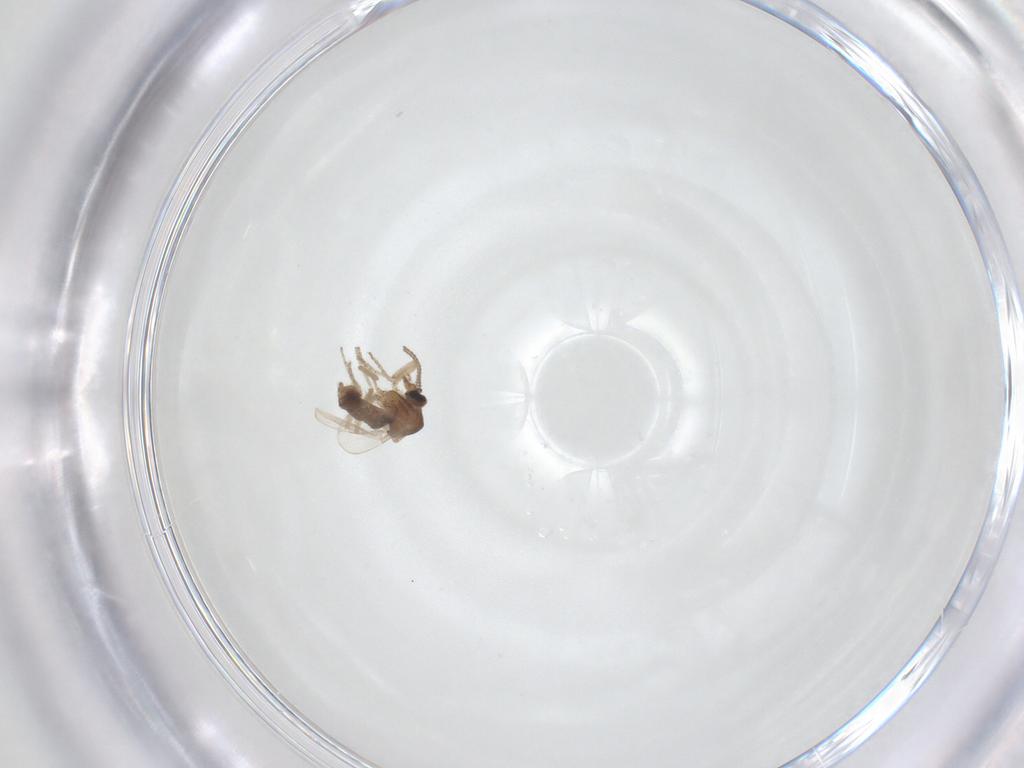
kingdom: Animalia
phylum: Arthropoda
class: Insecta
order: Diptera
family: Ceratopogonidae
